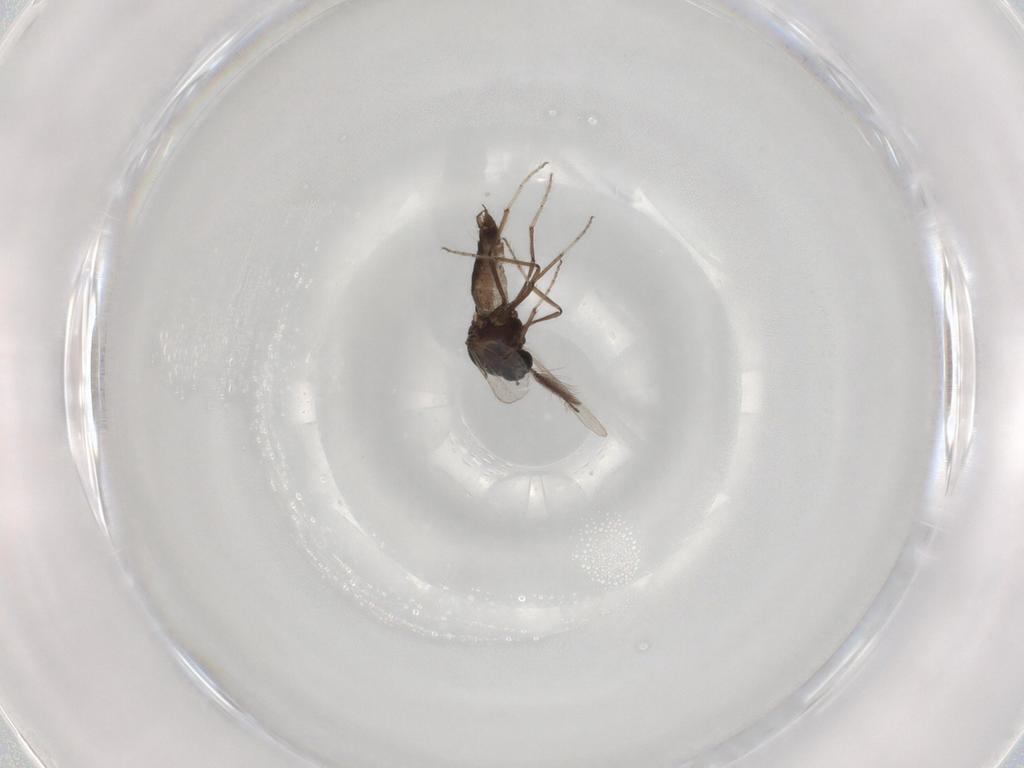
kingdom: Animalia
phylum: Arthropoda
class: Insecta
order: Diptera
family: Chironomidae
